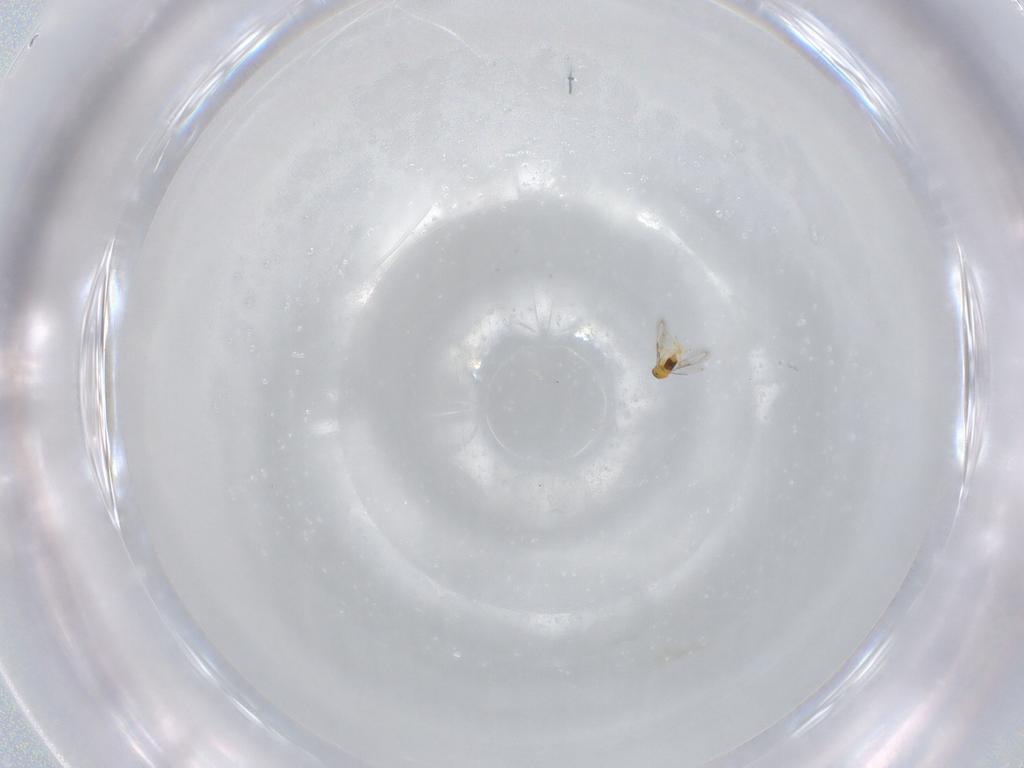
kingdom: Animalia
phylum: Arthropoda
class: Insecta
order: Hymenoptera
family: Aphelinidae
